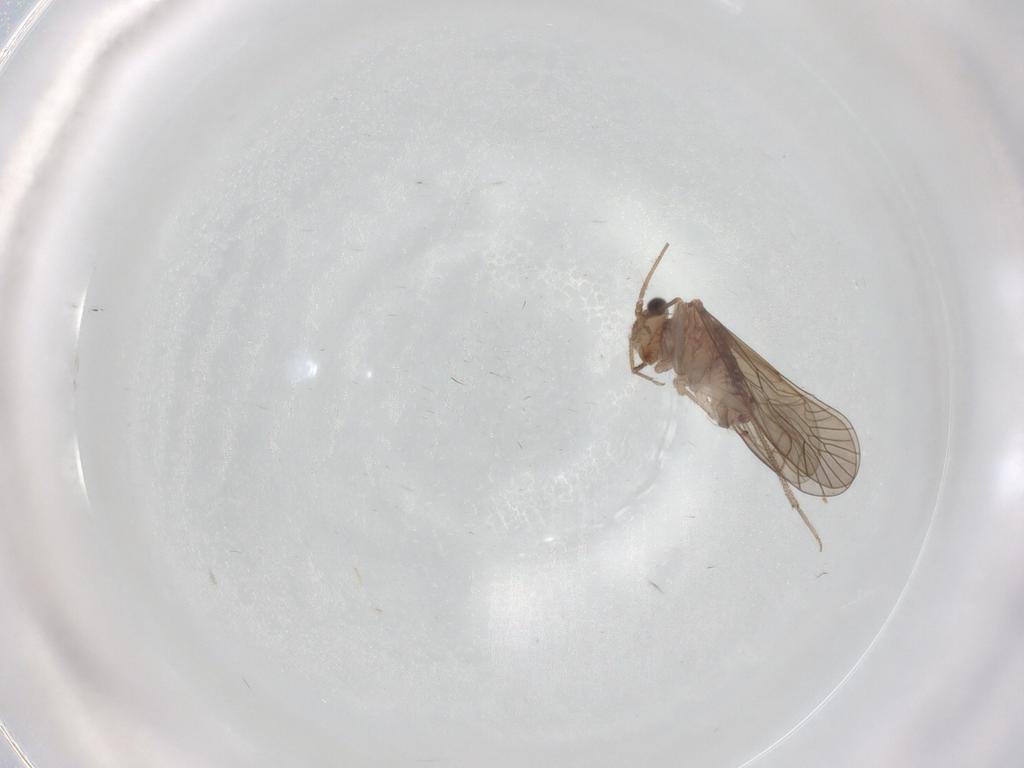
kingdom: Animalia
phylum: Arthropoda
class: Insecta
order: Psocodea
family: Caeciliusidae
